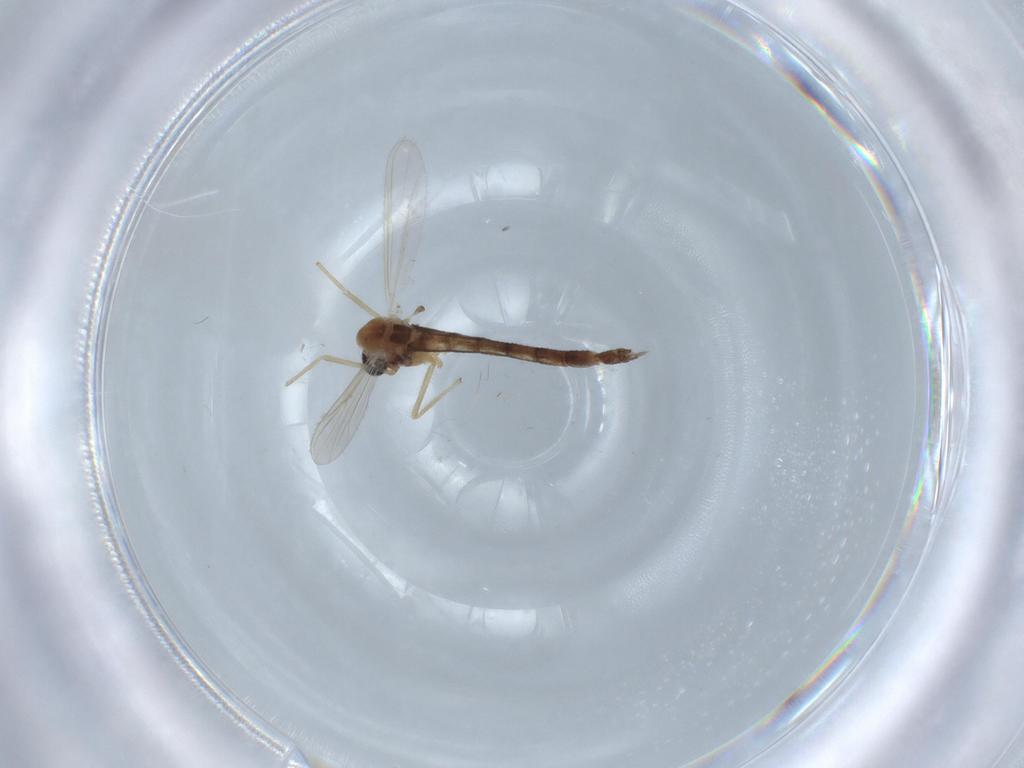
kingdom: Animalia
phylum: Arthropoda
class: Insecta
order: Diptera
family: Chironomidae
